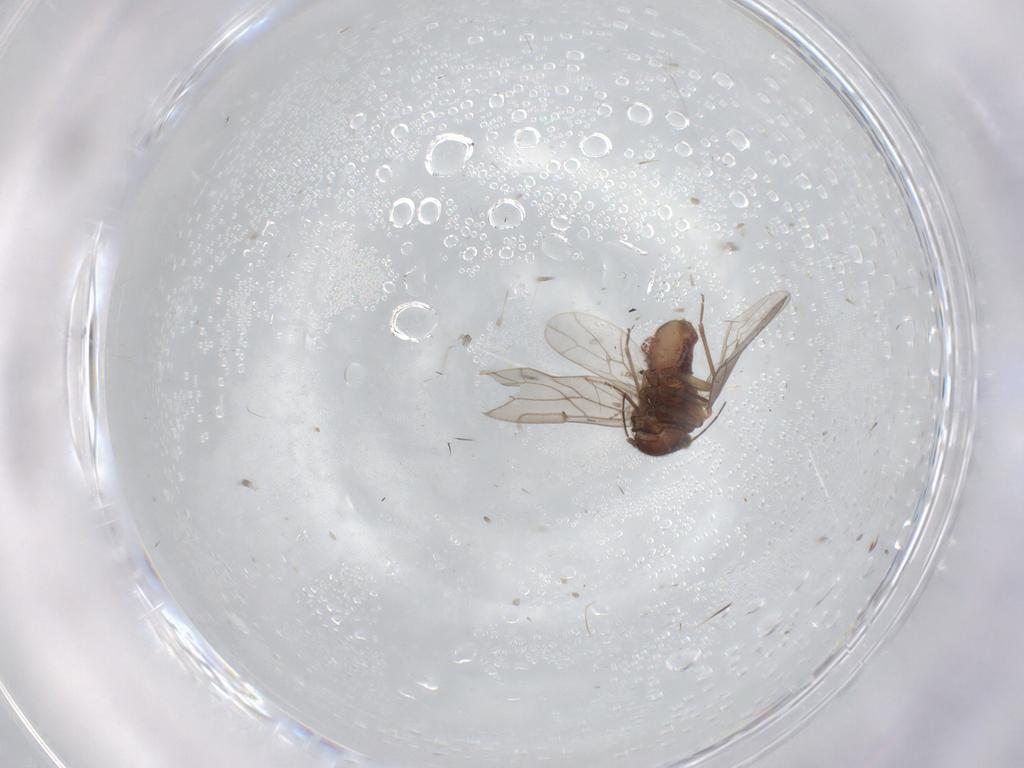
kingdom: Animalia
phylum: Arthropoda
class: Insecta
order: Psocodea
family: Ectopsocidae
